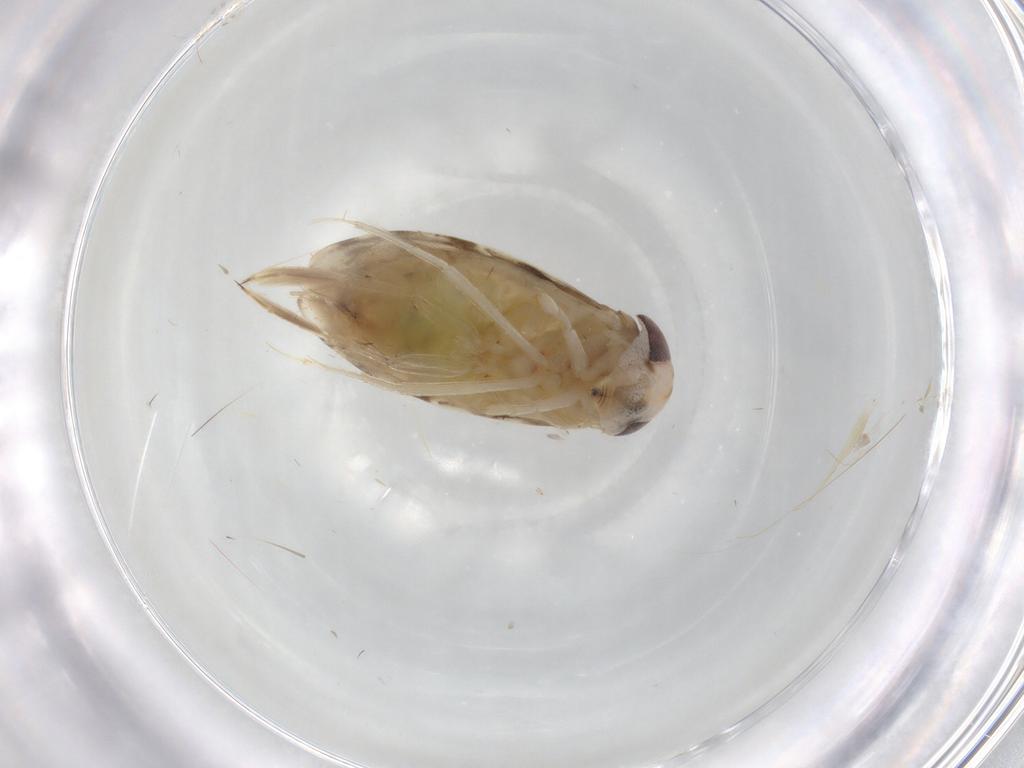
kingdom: Animalia
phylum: Arthropoda
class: Insecta
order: Hemiptera
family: Corixidae
